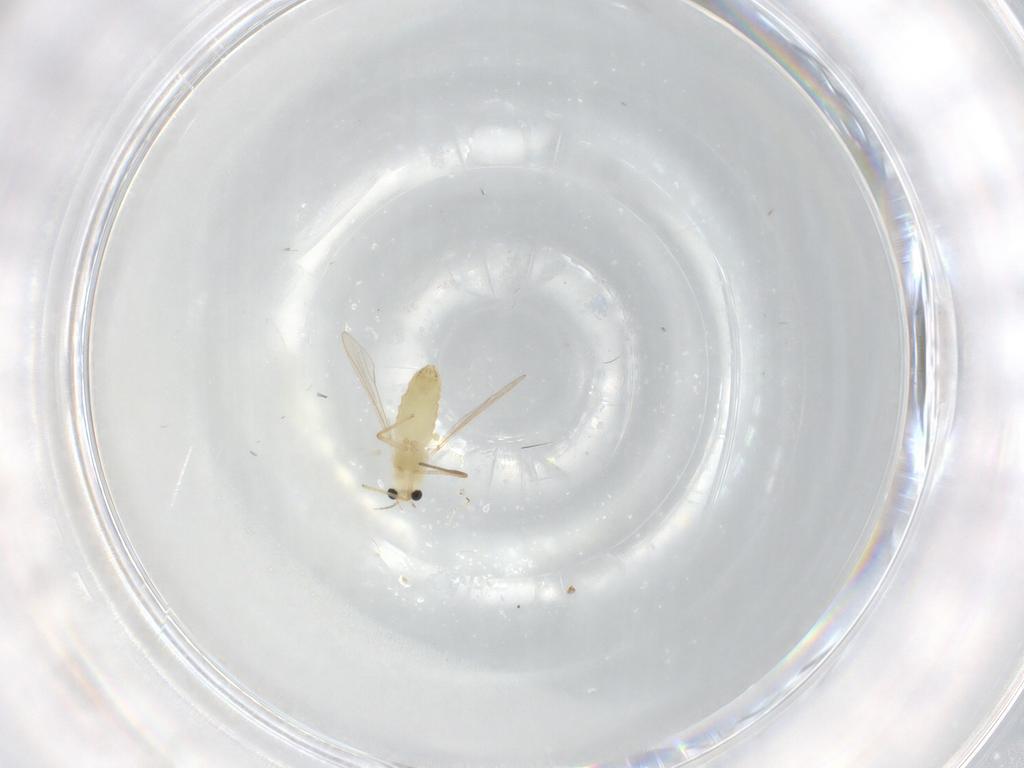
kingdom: Animalia
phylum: Arthropoda
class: Insecta
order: Diptera
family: Chironomidae
